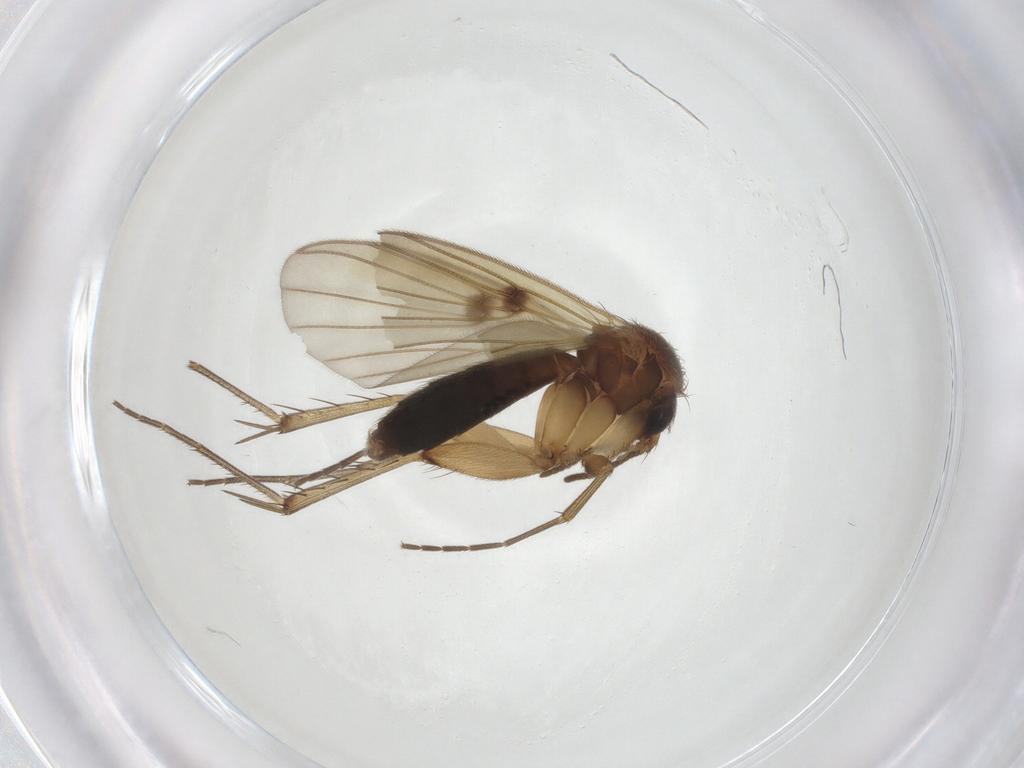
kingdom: Animalia
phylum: Arthropoda
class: Insecta
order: Diptera
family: Mycetophilidae
